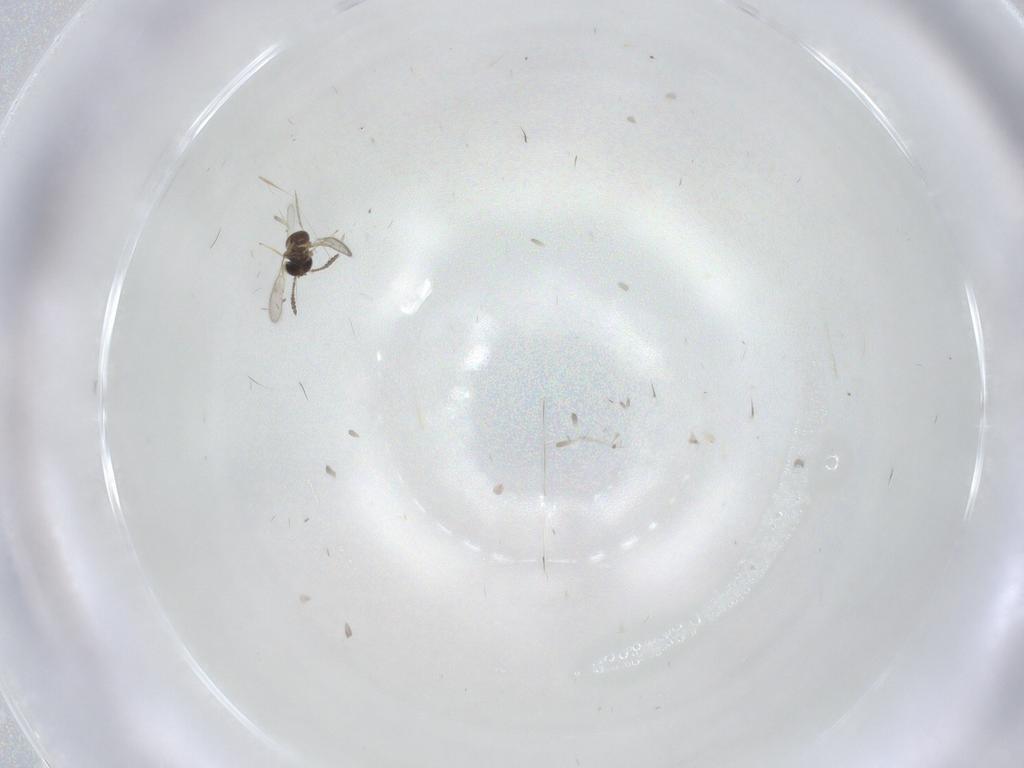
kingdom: Animalia
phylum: Arthropoda
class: Insecta
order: Hymenoptera
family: Scelionidae
